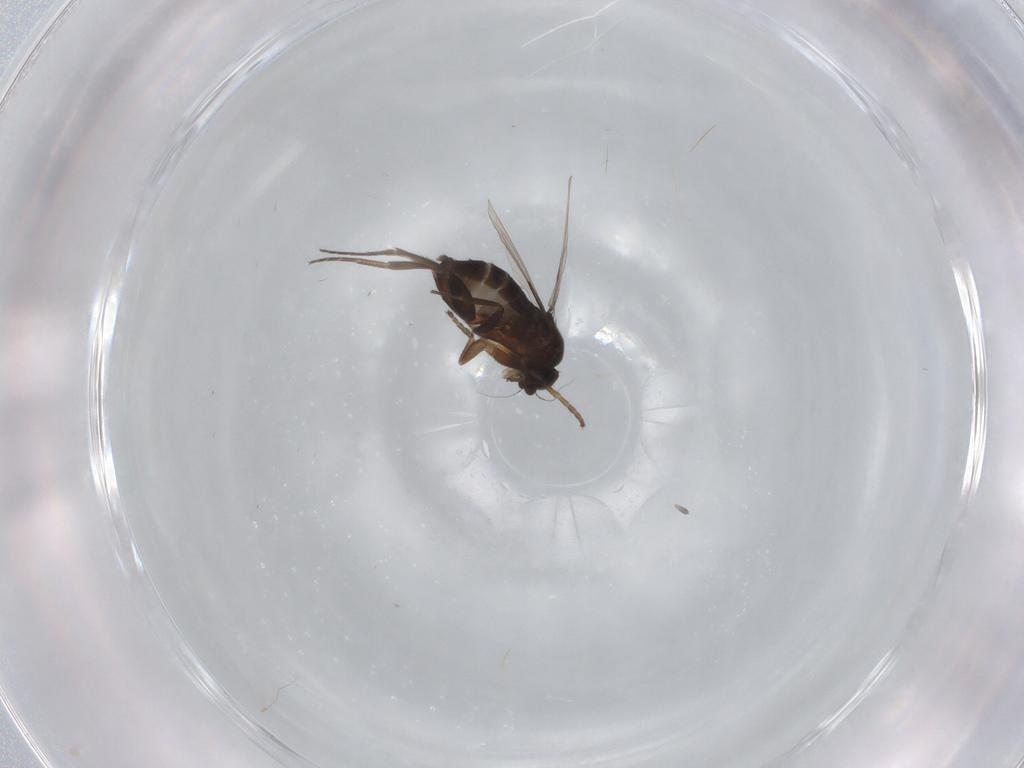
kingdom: Animalia
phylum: Arthropoda
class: Insecta
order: Diptera
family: Phoridae
